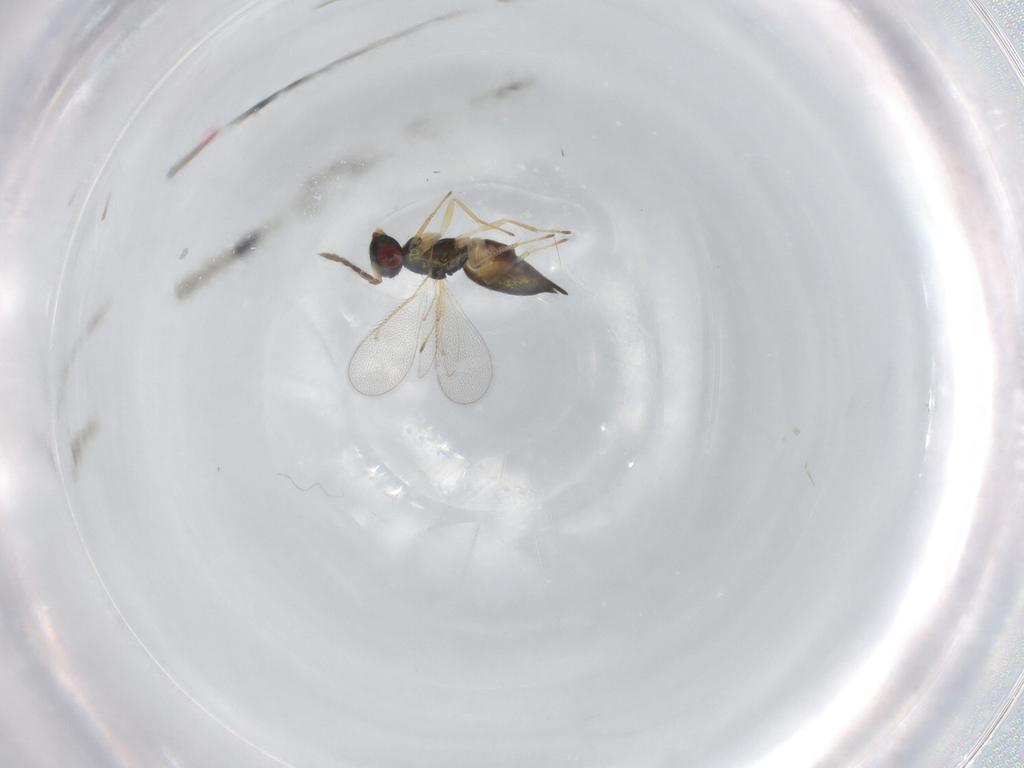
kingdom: Animalia
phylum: Arthropoda
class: Insecta
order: Hymenoptera
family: Eulophidae
